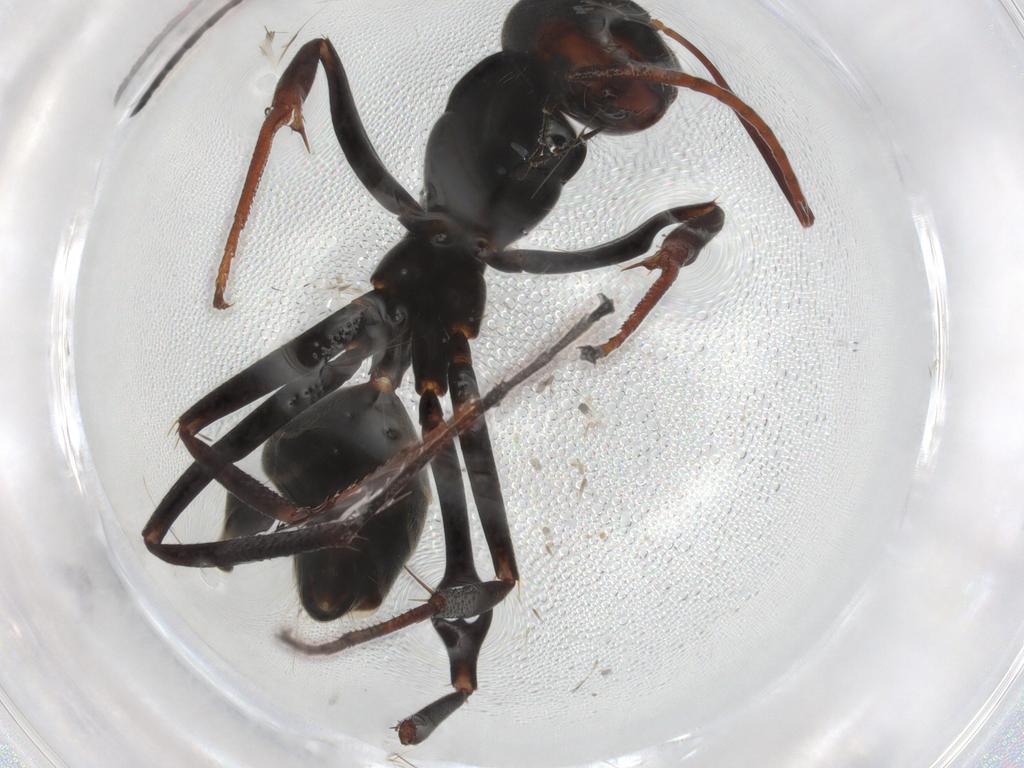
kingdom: Animalia
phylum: Arthropoda
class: Insecta
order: Hymenoptera
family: Formicidae
